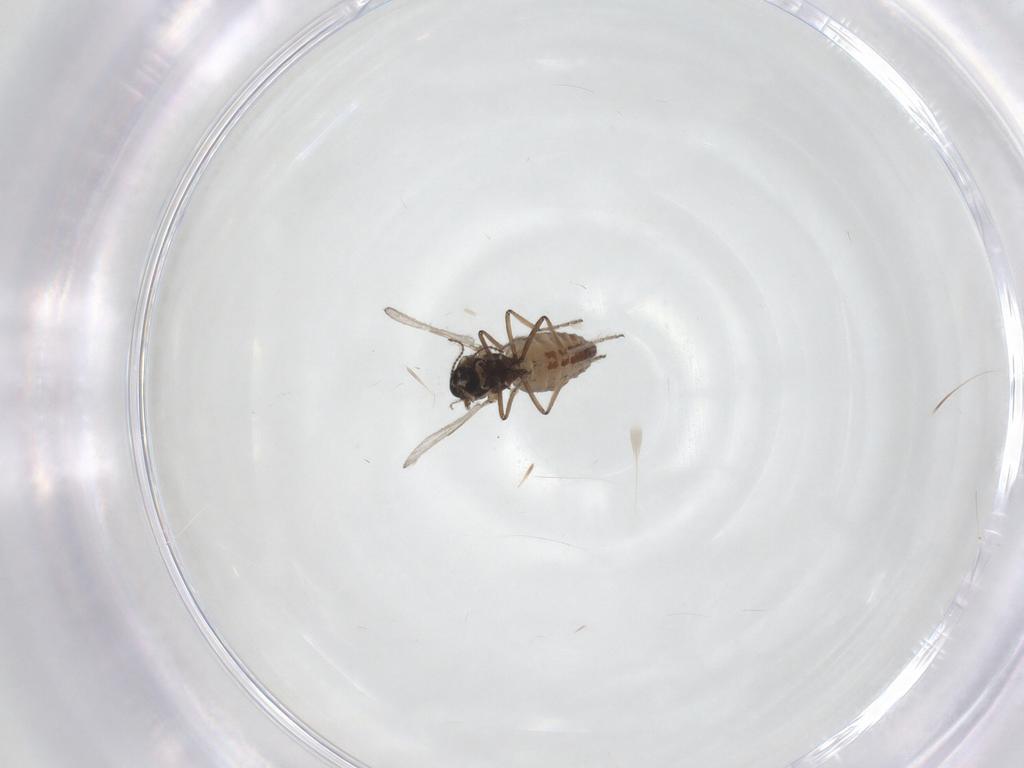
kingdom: Animalia
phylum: Arthropoda
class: Insecta
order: Diptera
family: Ceratopogonidae
